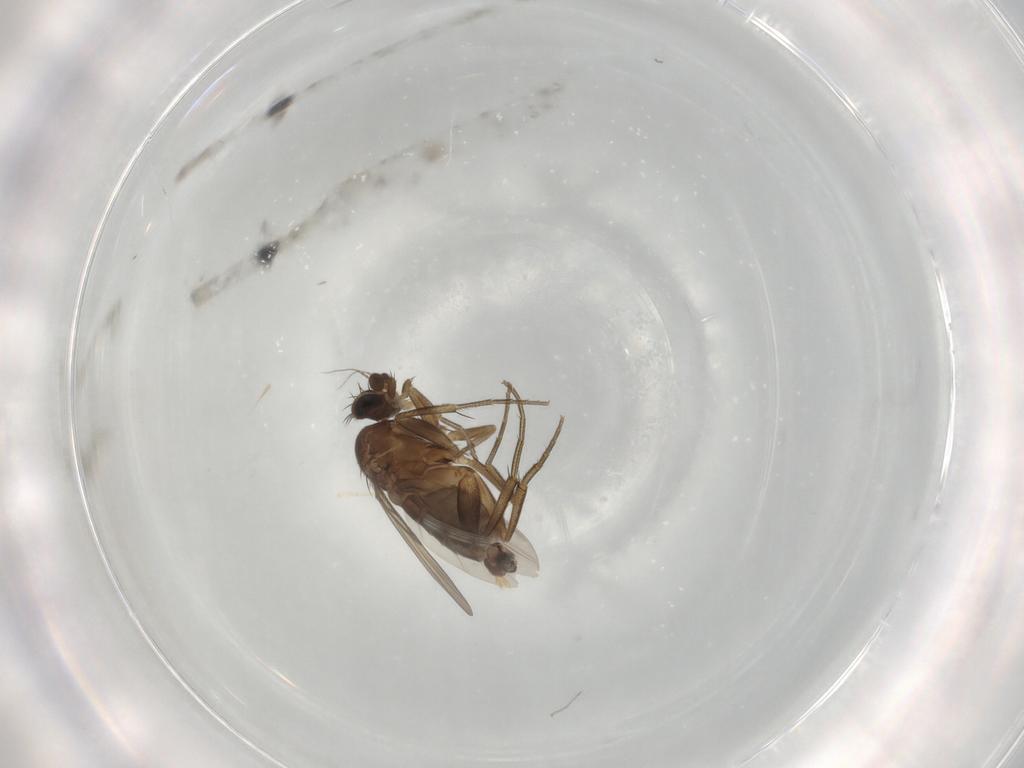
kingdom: Animalia
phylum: Arthropoda
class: Insecta
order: Diptera
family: Phoridae
